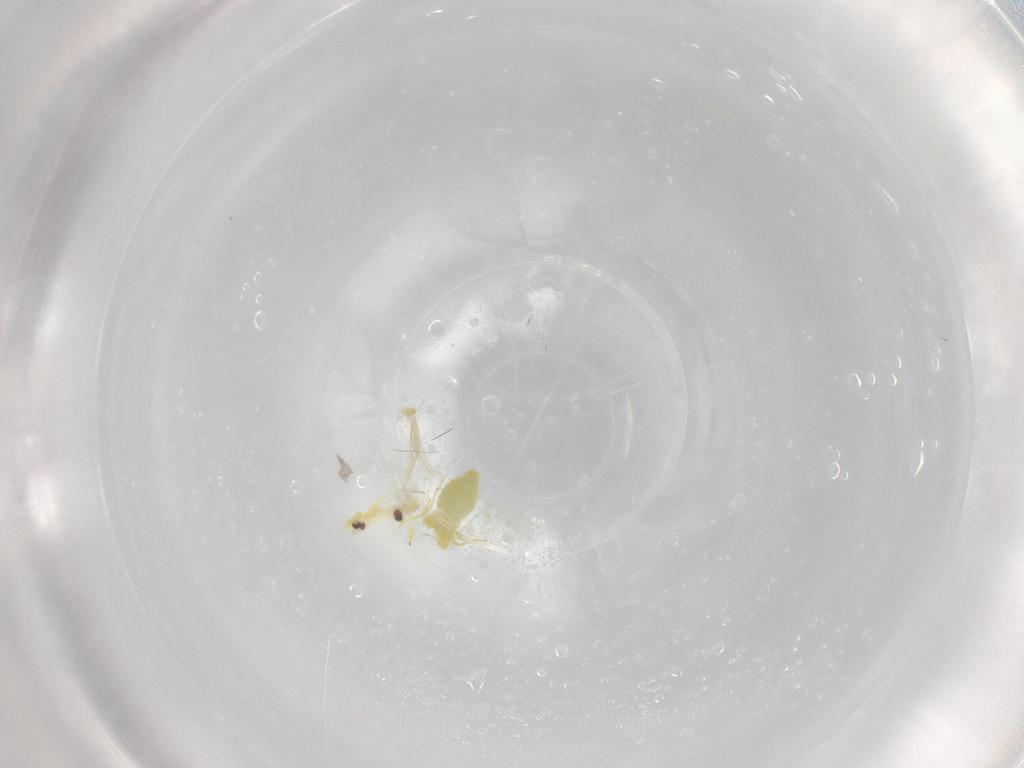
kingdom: Animalia
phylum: Arthropoda
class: Insecta
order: Hemiptera
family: Aleyrodidae
